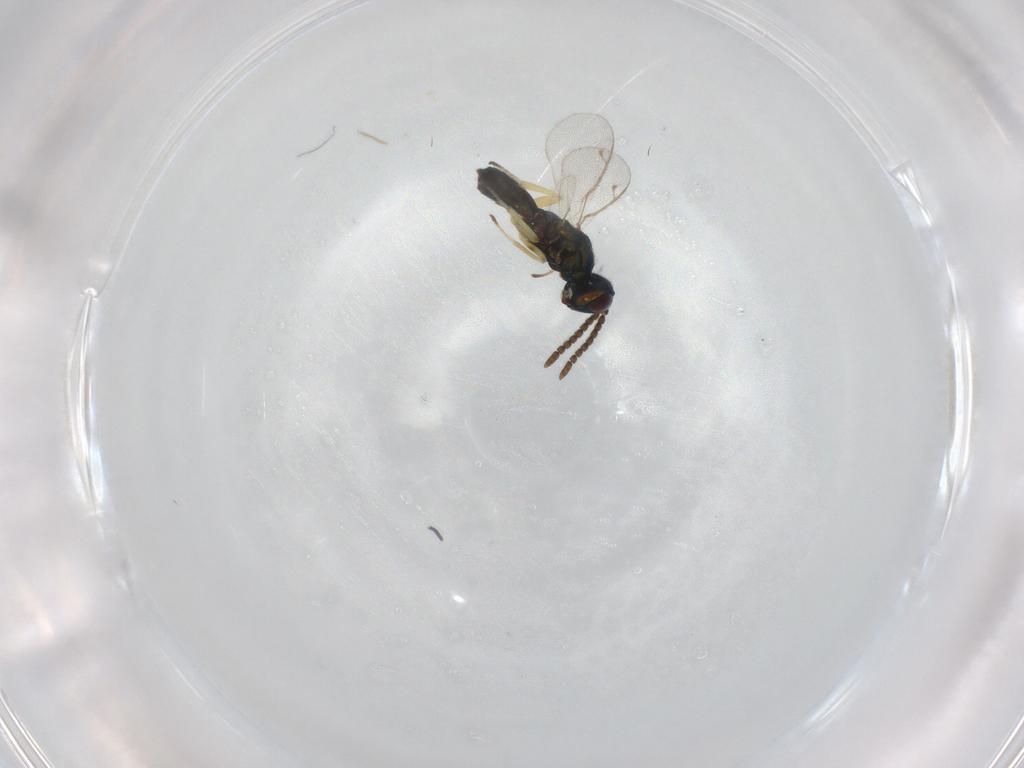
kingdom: Animalia
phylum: Arthropoda
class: Insecta
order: Hymenoptera
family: Eupelmidae
